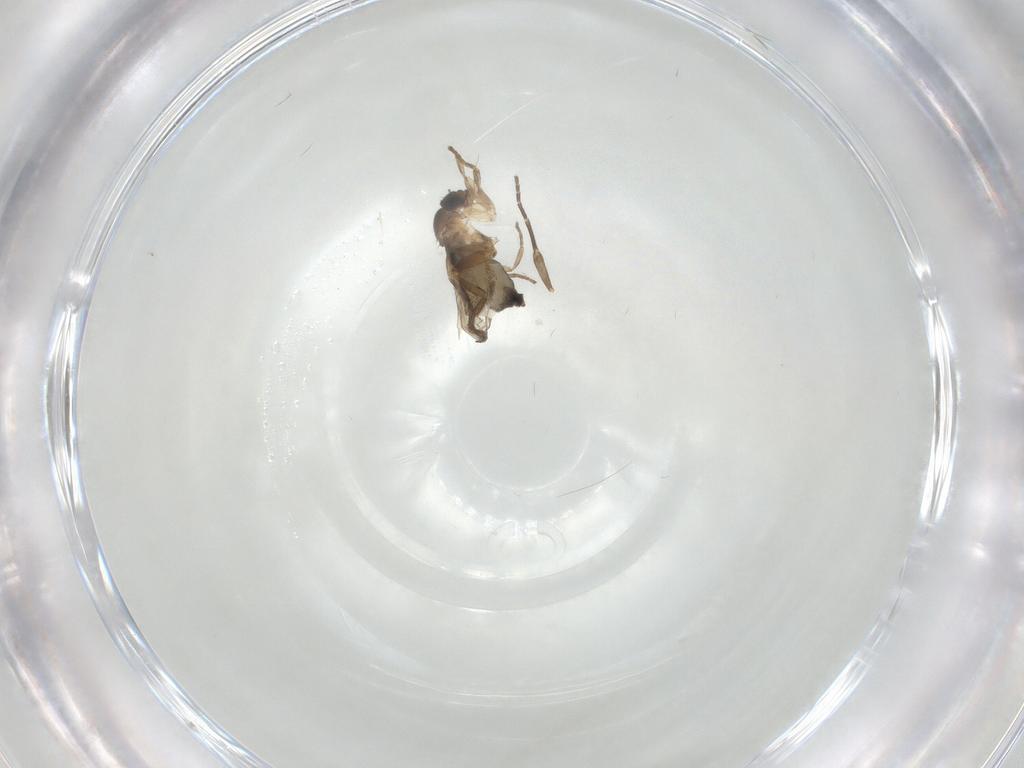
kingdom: Animalia
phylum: Arthropoda
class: Insecta
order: Diptera
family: Phoridae
